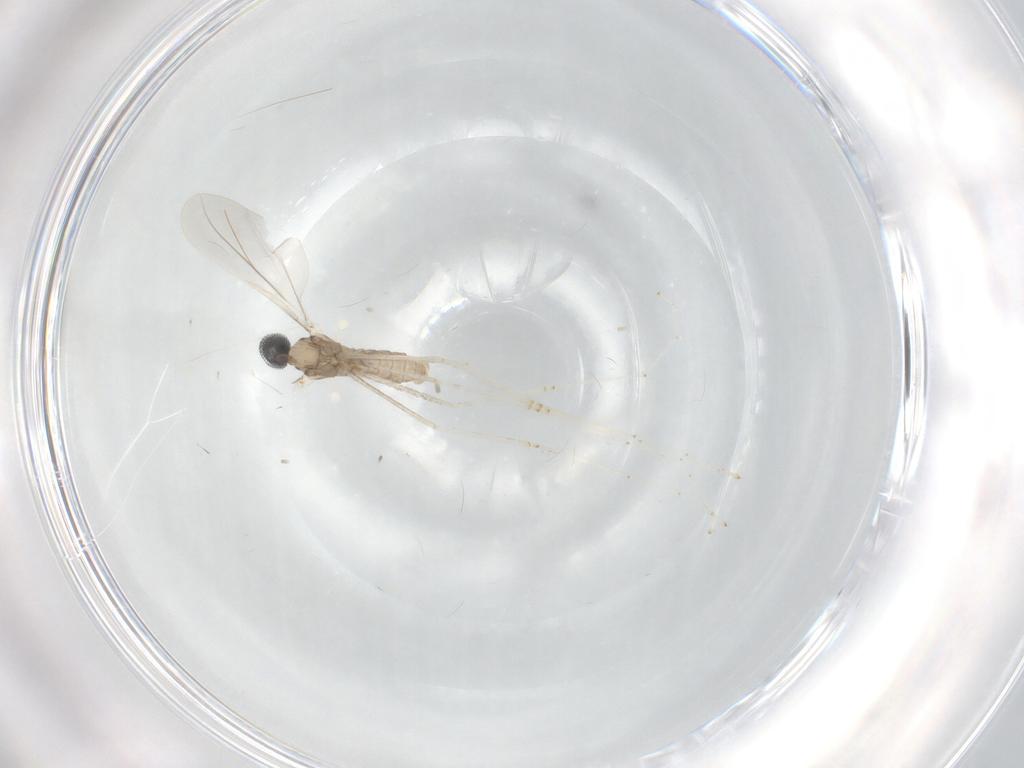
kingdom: Animalia
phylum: Arthropoda
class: Insecta
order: Diptera
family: Cecidomyiidae
